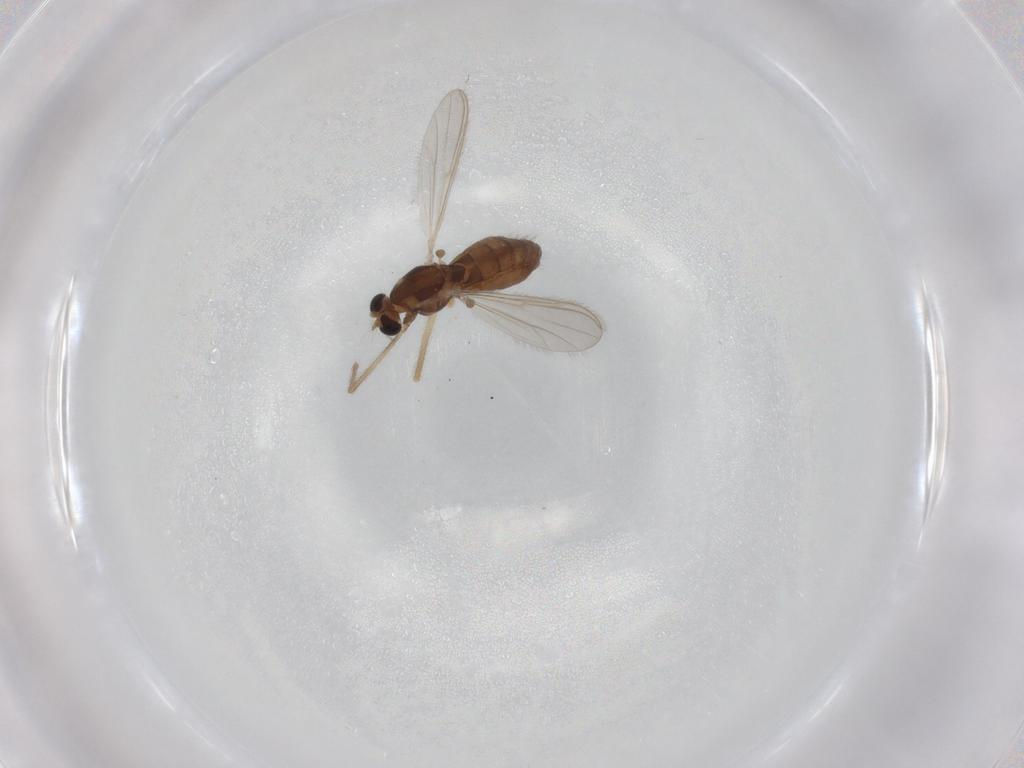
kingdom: Animalia
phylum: Arthropoda
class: Insecta
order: Diptera
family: Chironomidae
